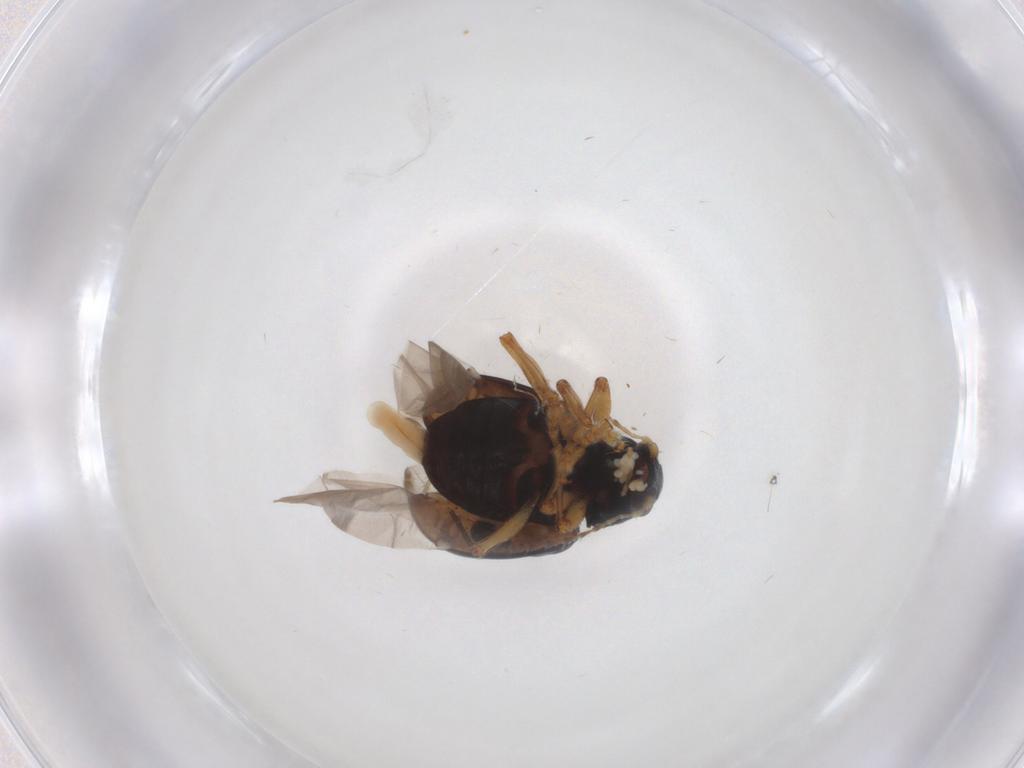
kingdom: Animalia
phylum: Arthropoda
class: Insecta
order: Coleoptera
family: Chrysomelidae
